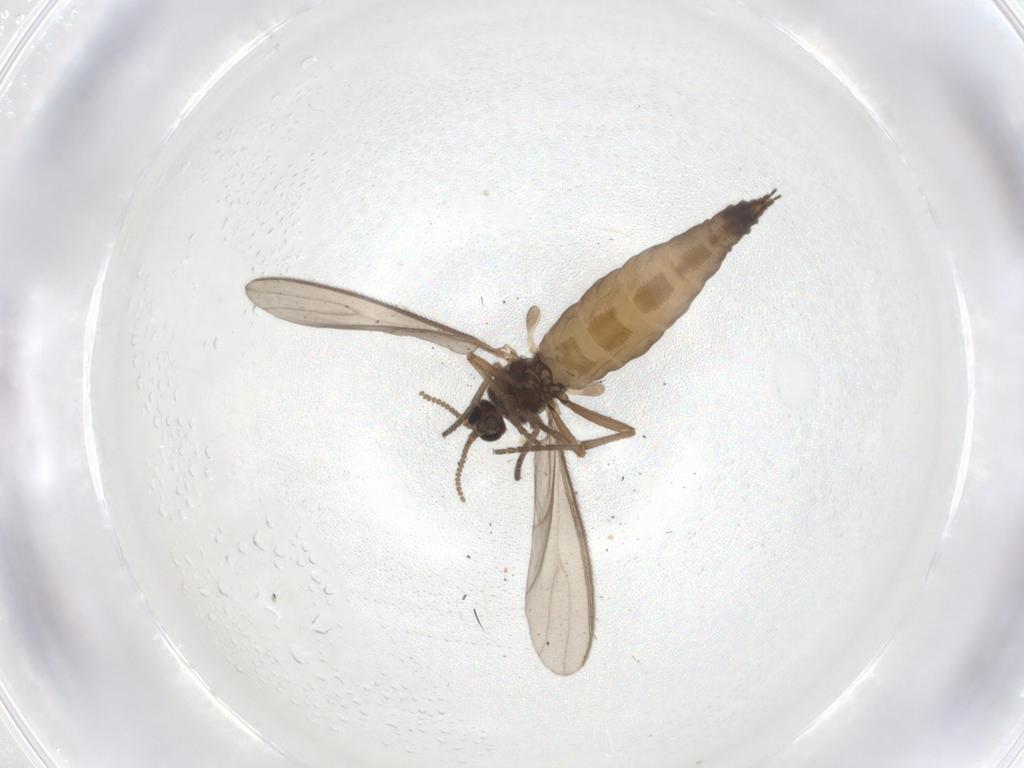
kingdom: Animalia
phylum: Arthropoda
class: Insecta
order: Diptera
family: Sciaridae
